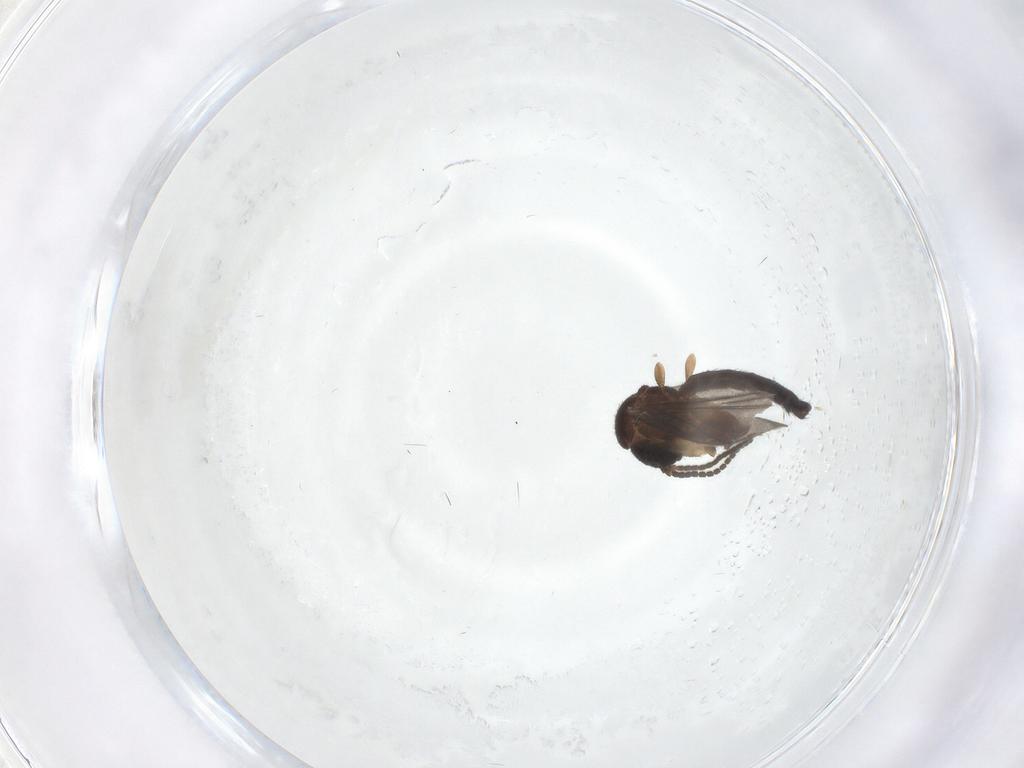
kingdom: Animalia
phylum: Arthropoda
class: Insecta
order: Diptera
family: Mycetophilidae
